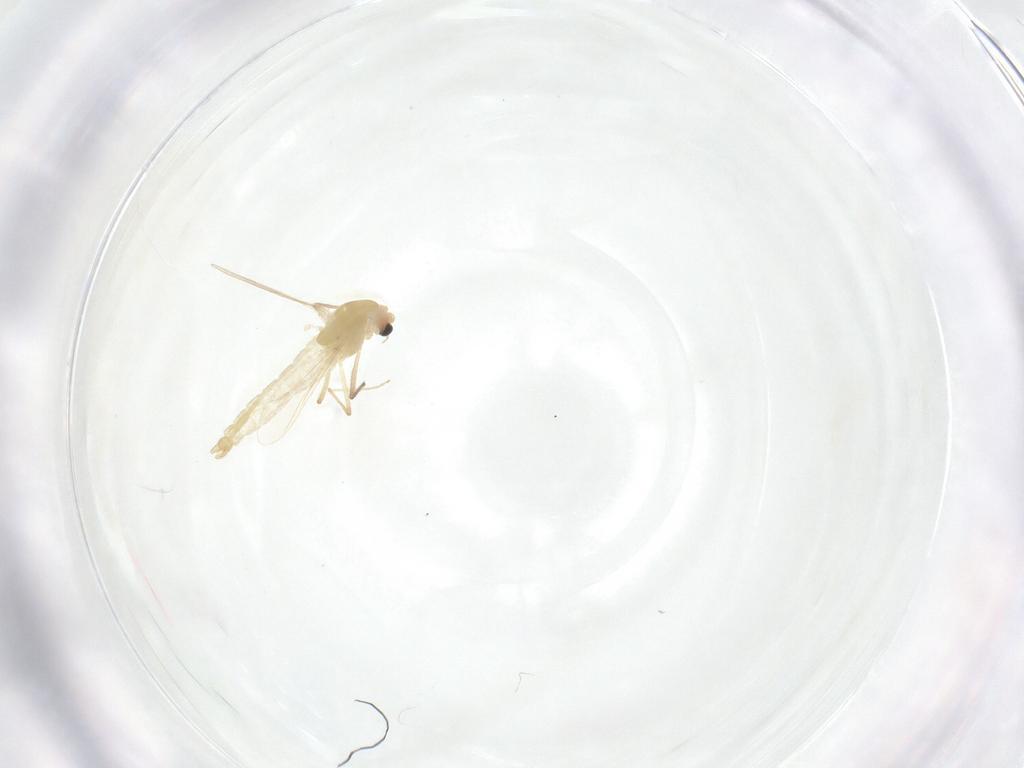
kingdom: Animalia
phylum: Arthropoda
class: Insecta
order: Diptera
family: Chironomidae
